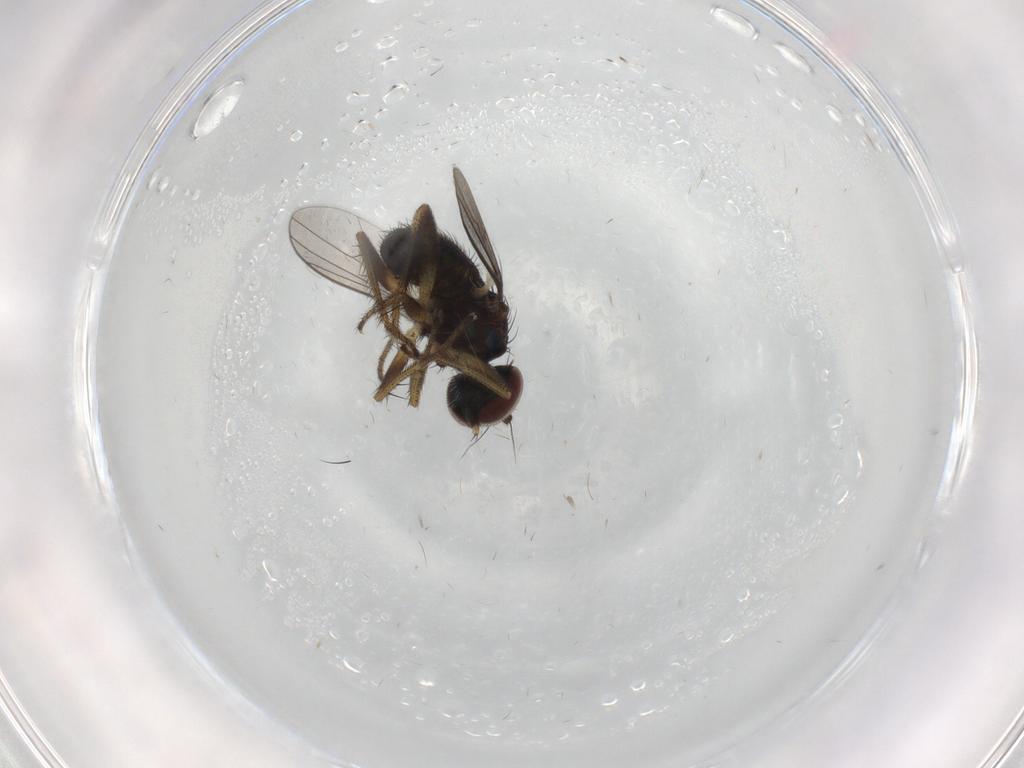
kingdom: Animalia
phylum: Arthropoda
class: Insecta
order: Diptera
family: Dolichopodidae
